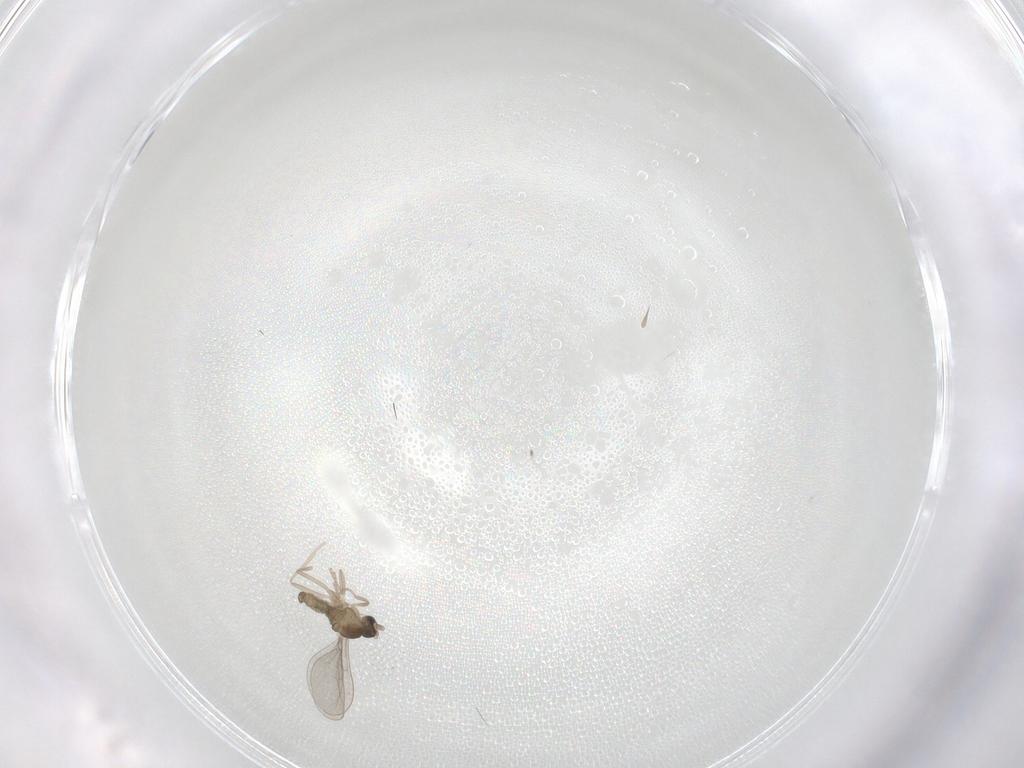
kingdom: Animalia
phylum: Arthropoda
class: Insecta
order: Diptera
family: Cecidomyiidae
